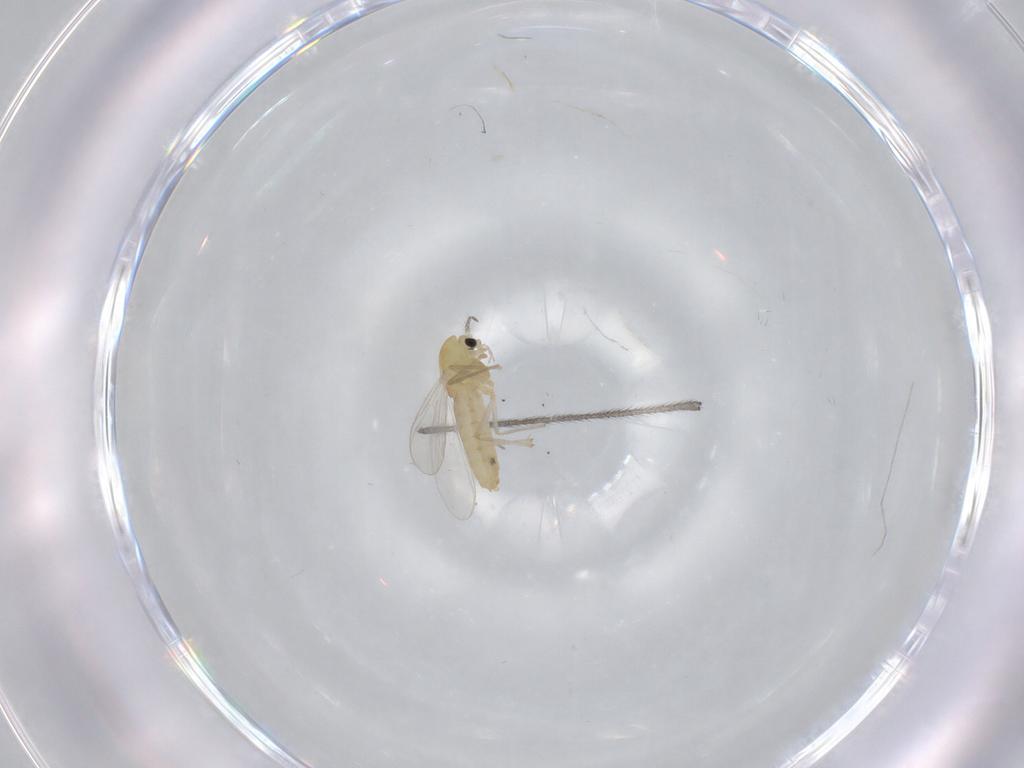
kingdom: Animalia
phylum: Arthropoda
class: Insecta
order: Diptera
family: Chironomidae
